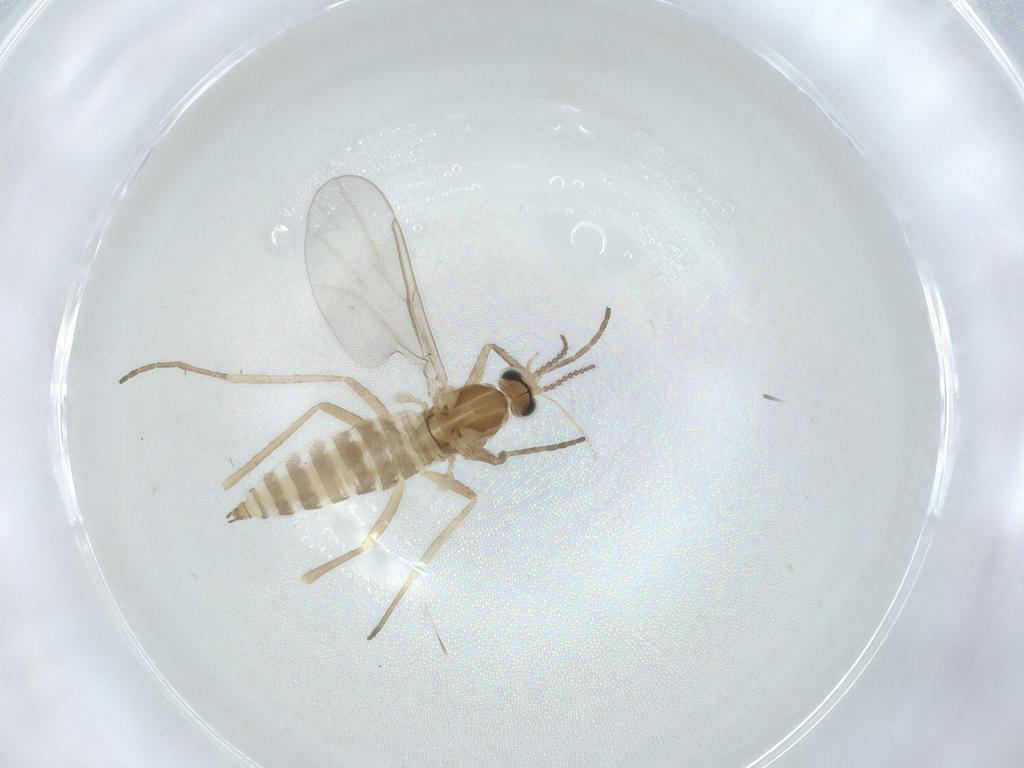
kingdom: Animalia
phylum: Arthropoda
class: Insecta
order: Diptera
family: Cecidomyiidae
